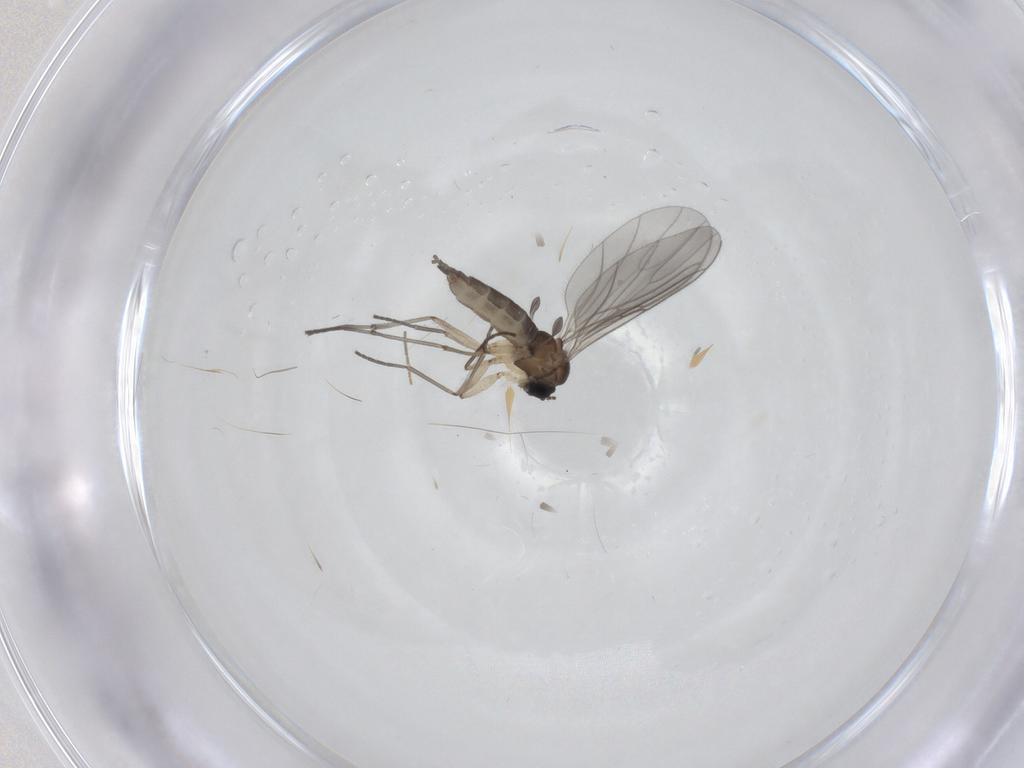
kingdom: Animalia
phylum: Arthropoda
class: Insecta
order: Diptera
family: Sciaridae
